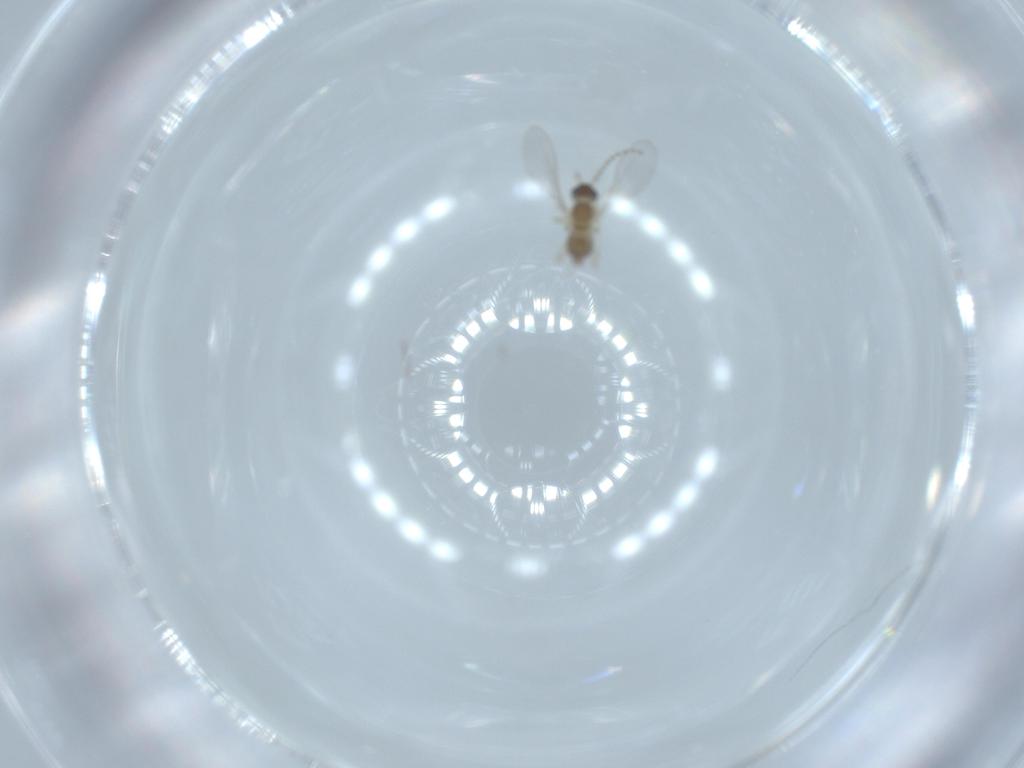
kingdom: Animalia
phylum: Arthropoda
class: Insecta
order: Diptera
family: Cecidomyiidae
